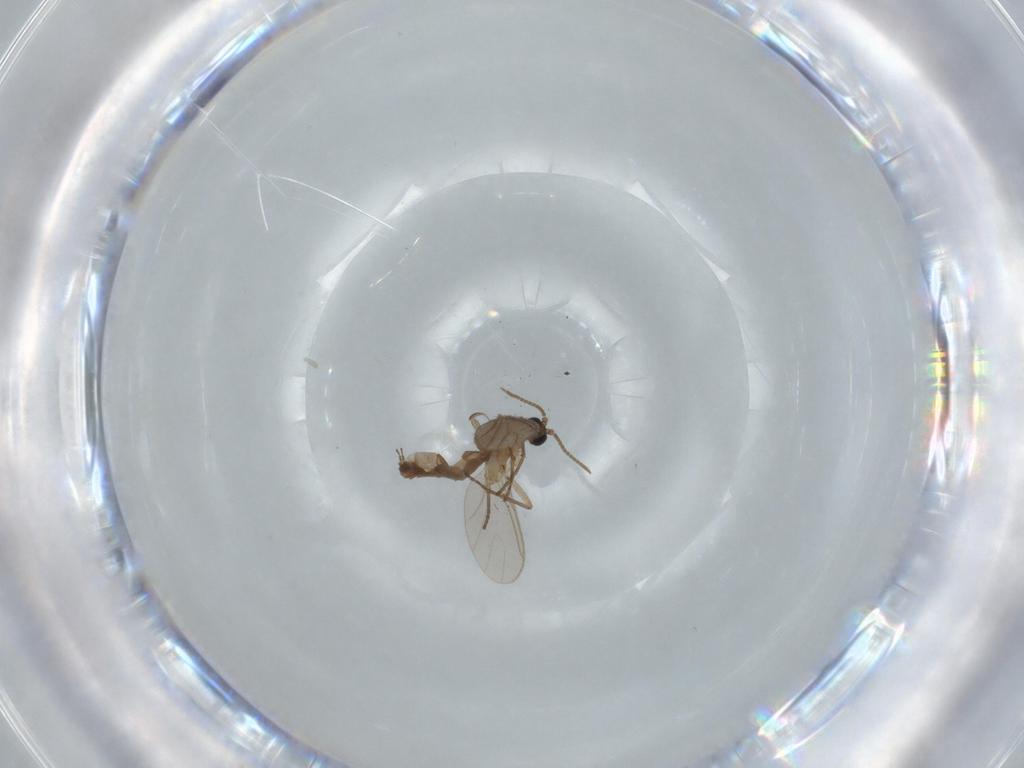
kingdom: Animalia
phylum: Arthropoda
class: Insecta
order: Diptera
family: Sciaridae
